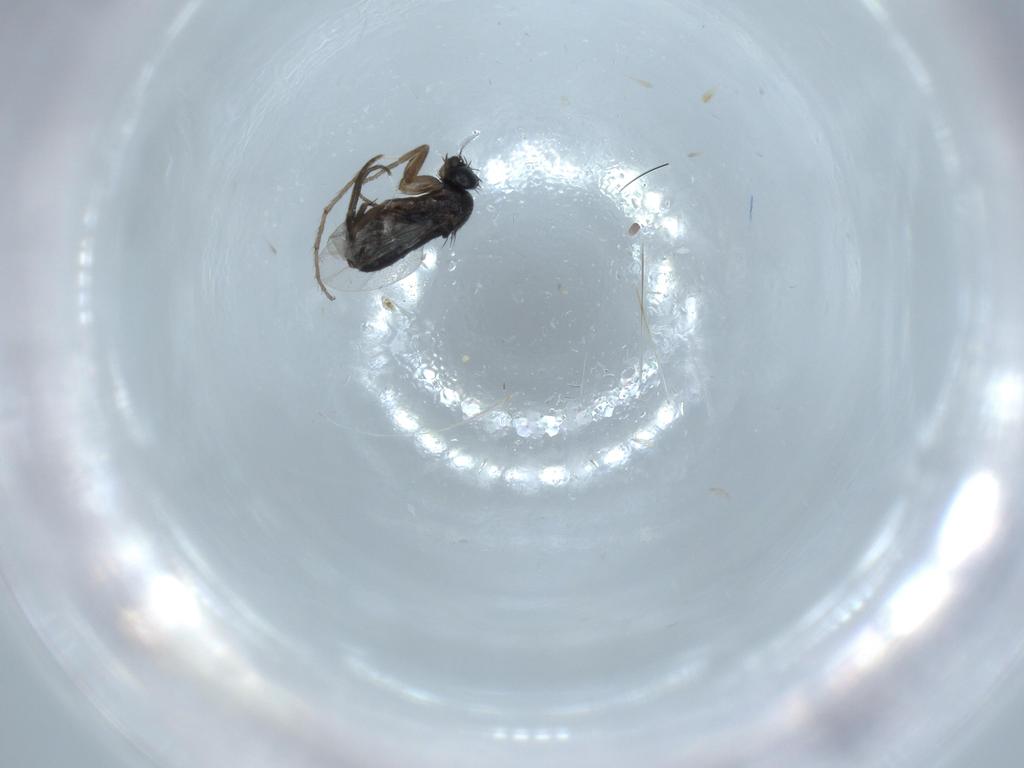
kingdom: Animalia
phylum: Arthropoda
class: Insecta
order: Diptera
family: Phoridae
